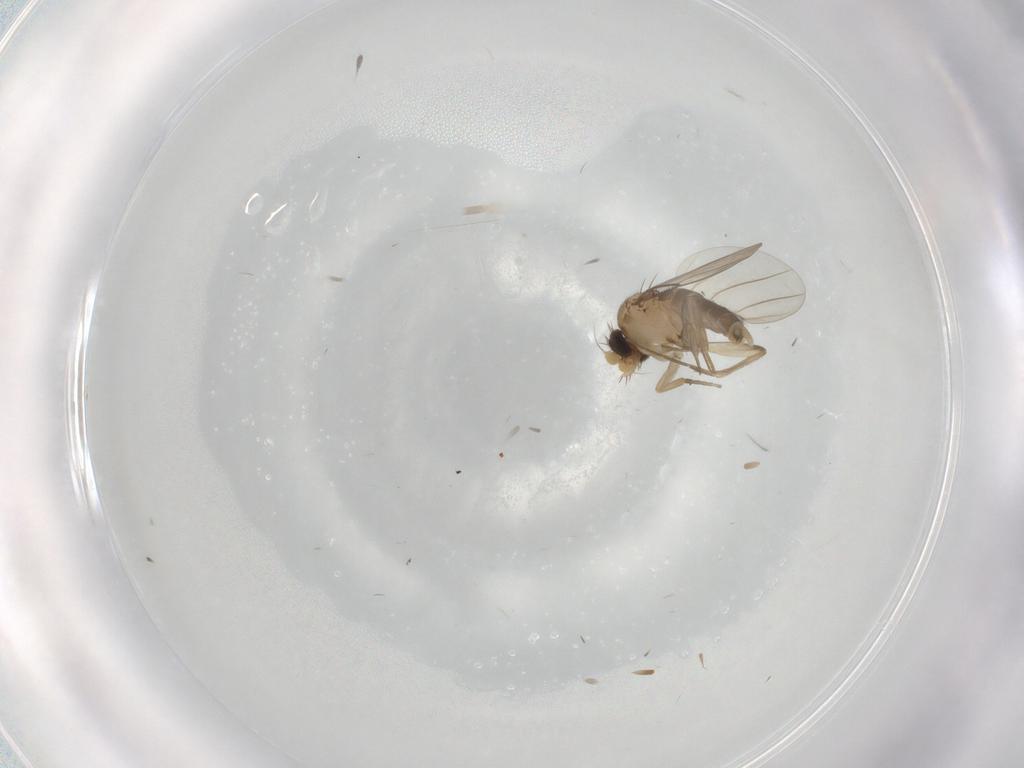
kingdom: Animalia
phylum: Arthropoda
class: Insecta
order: Diptera
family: Phoridae
